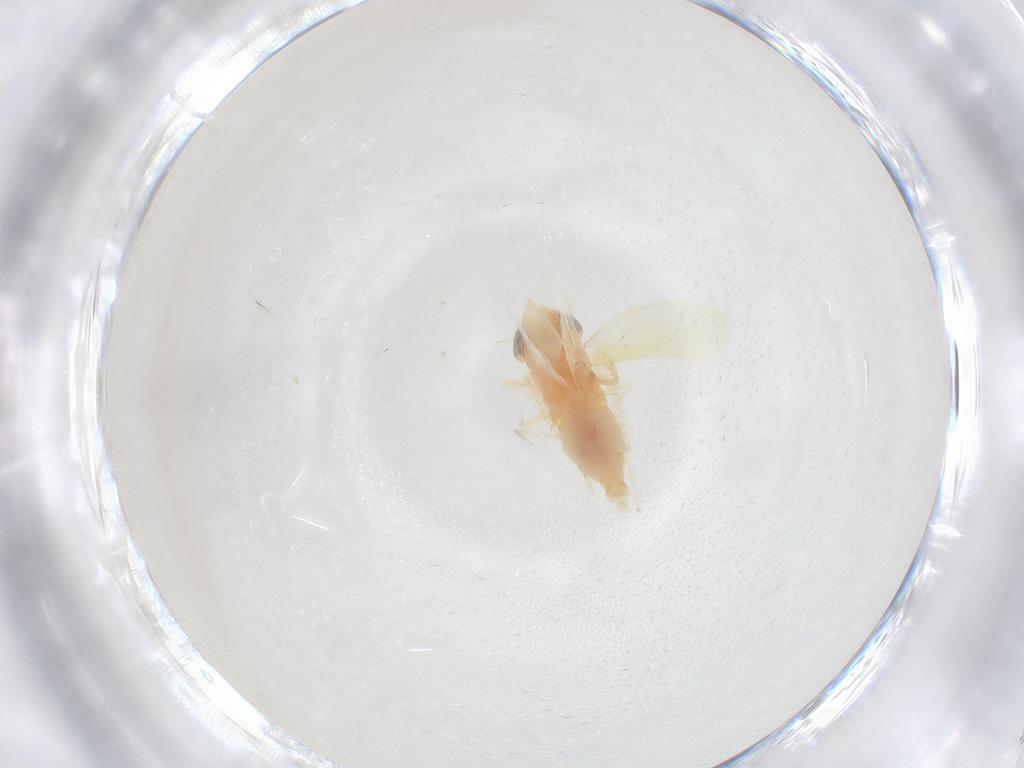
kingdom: Animalia
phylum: Arthropoda
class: Insecta
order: Hemiptera
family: Cicadellidae
